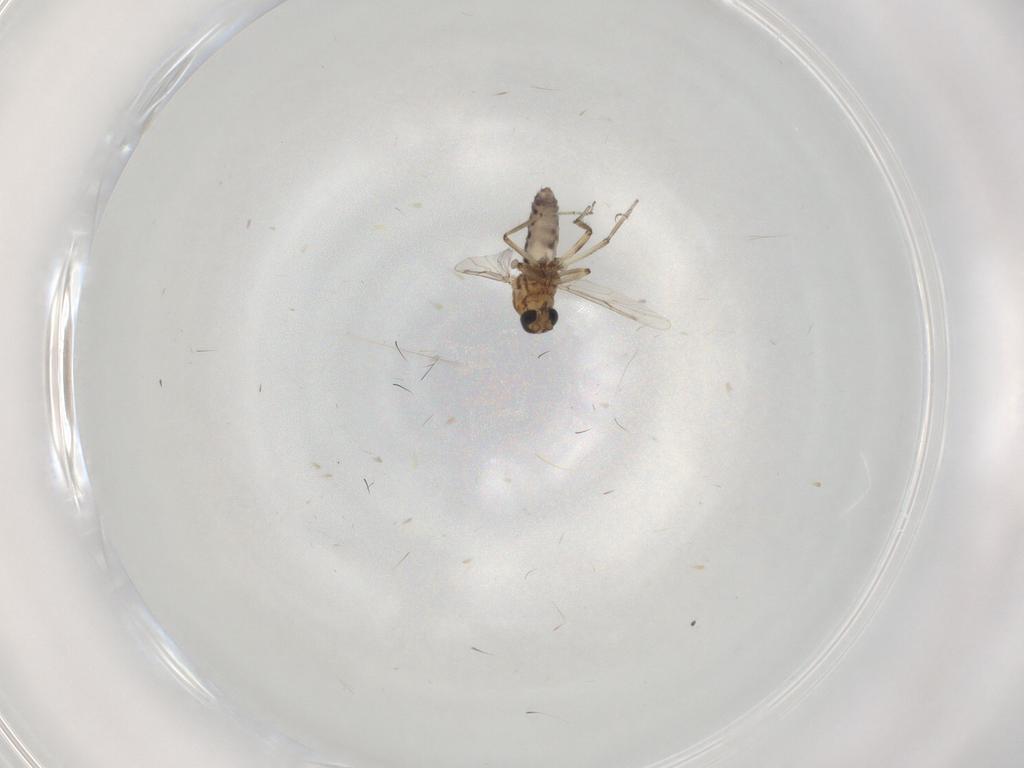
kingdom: Animalia
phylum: Arthropoda
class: Insecta
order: Diptera
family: Ceratopogonidae
